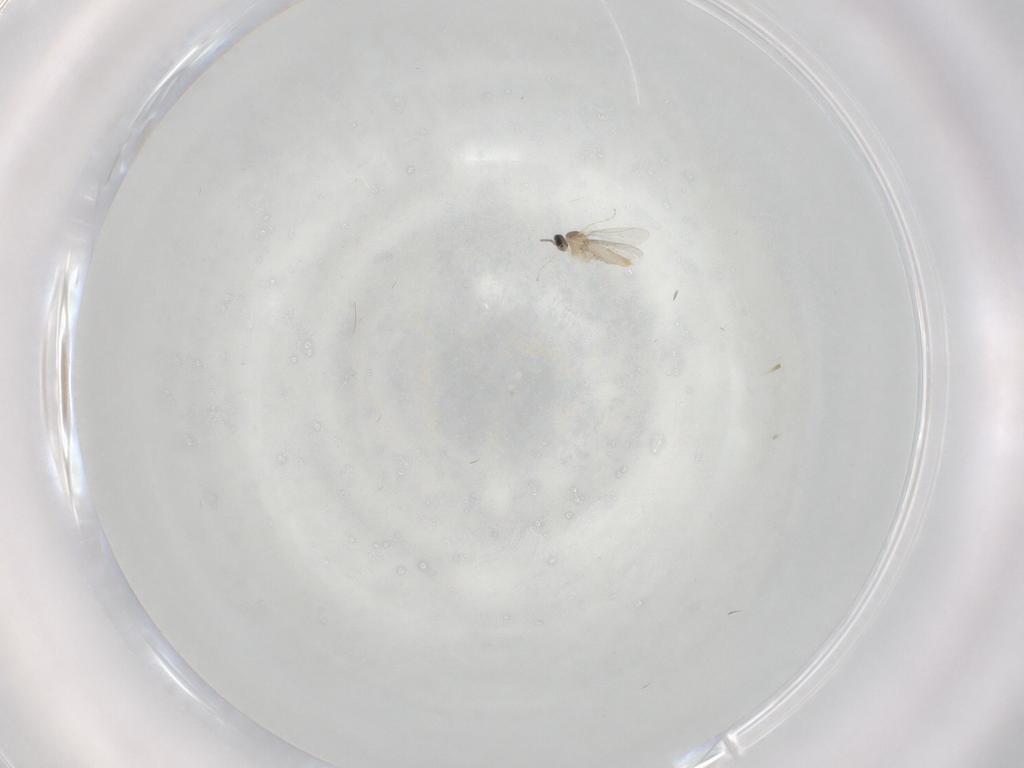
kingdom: Animalia
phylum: Arthropoda
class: Insecta
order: Diptera
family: Cecidomyiidae
